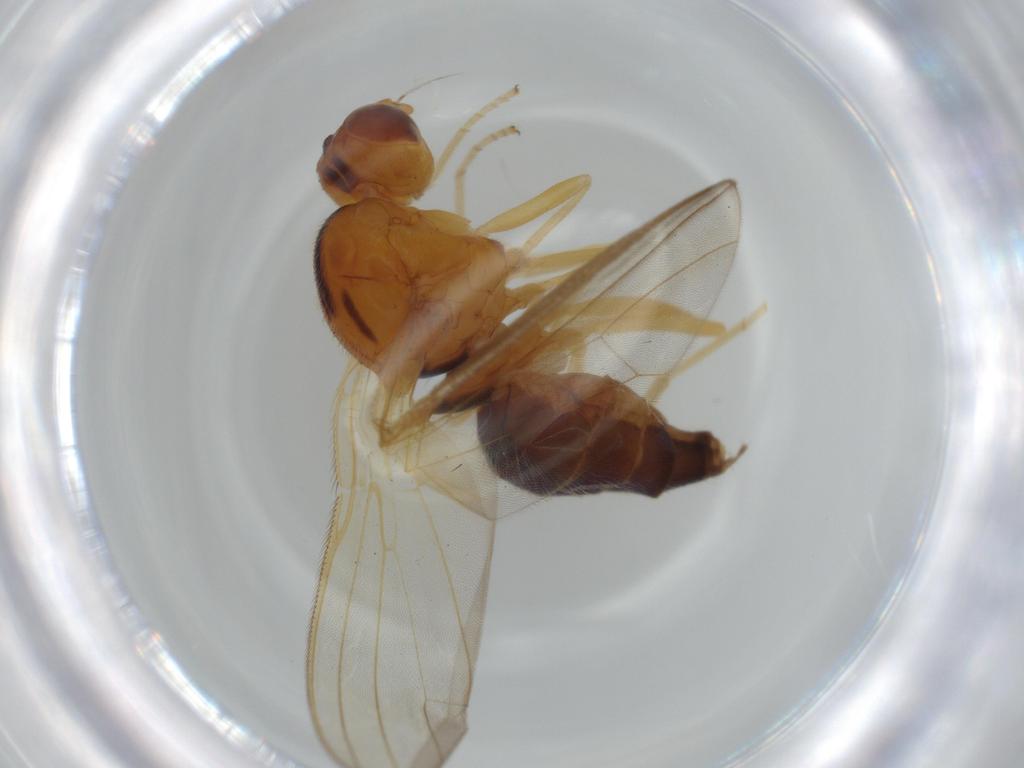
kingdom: Animalia
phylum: Arthropoda
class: Insecta
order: Diptera
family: Psilidae
